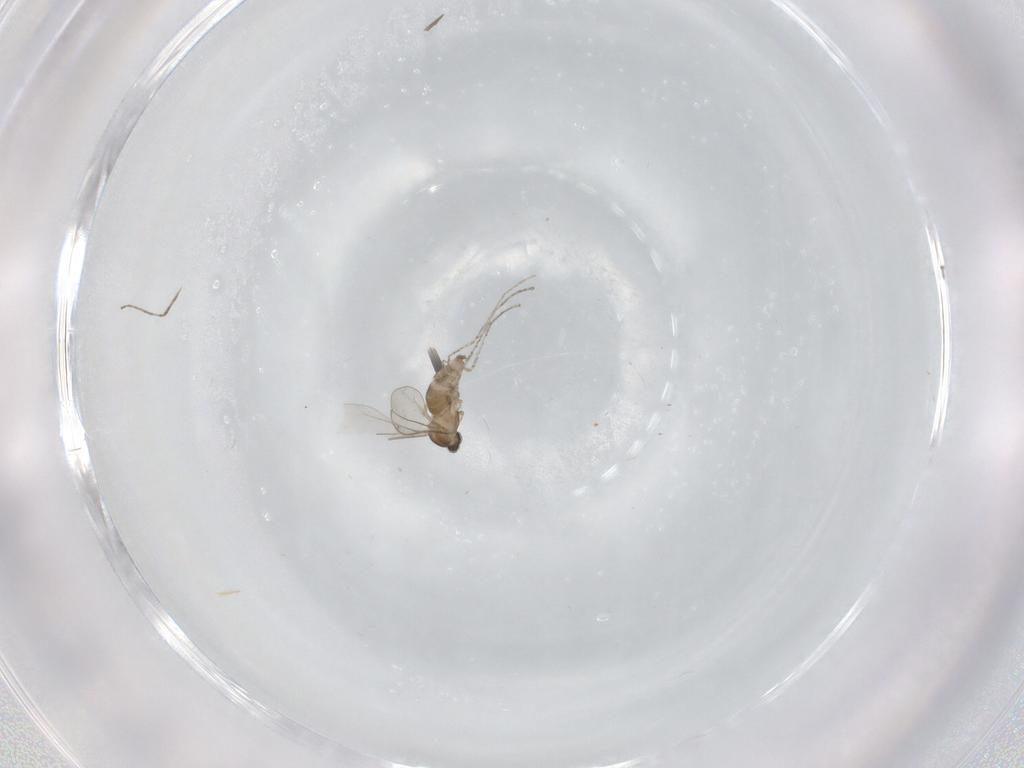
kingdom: Animalia
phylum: Arthropoda
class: Insecta
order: Diptera
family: Cecidomyiidae
